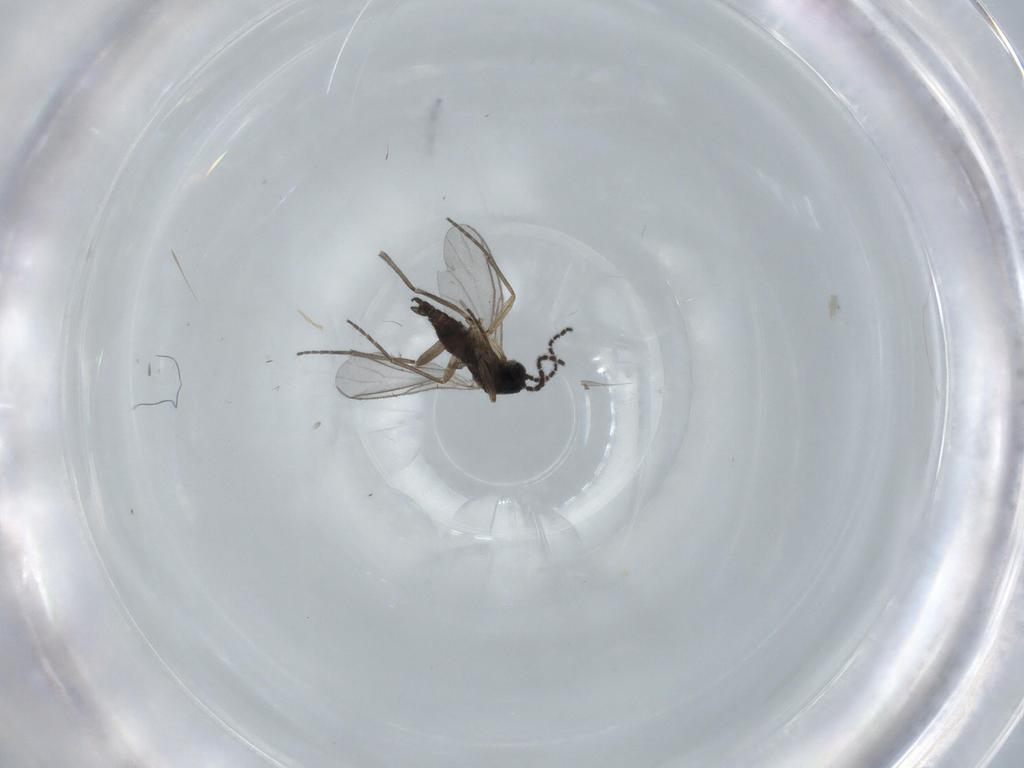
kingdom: Animalia
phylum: Arthropoda
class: Insecta
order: Diptera
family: Sciaridae
